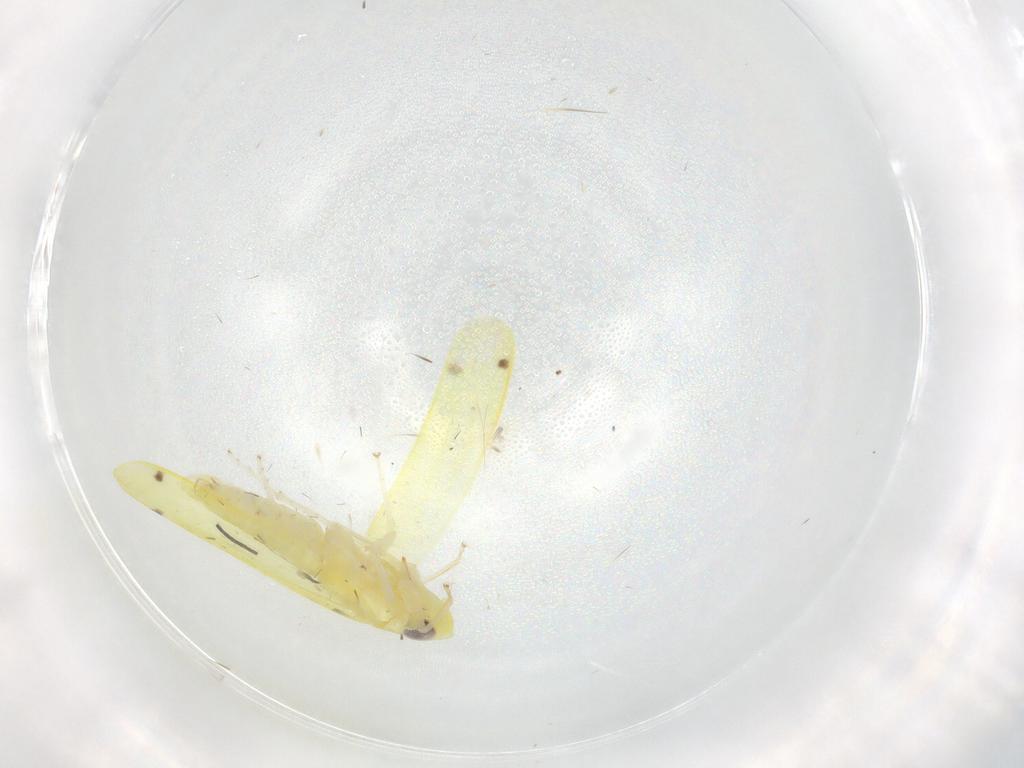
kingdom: Animalia
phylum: Arthropoda
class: Insecta
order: Hemiptera
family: Cicadellidae
